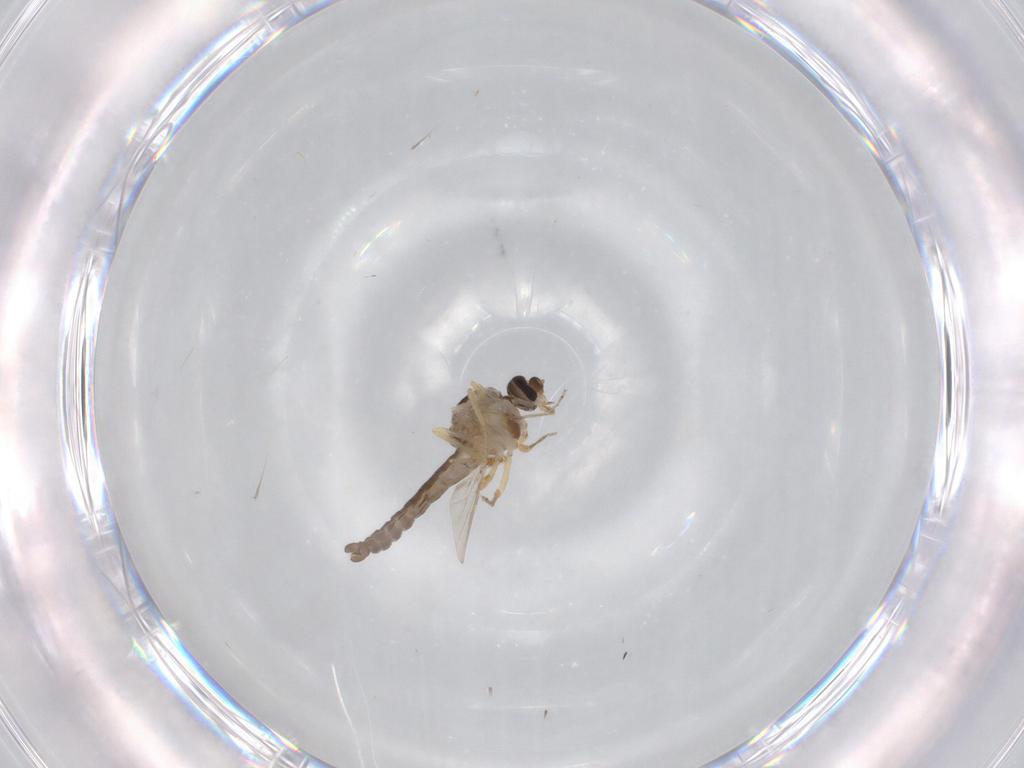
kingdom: Animalia
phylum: Arthropoda
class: Insecta
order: Diptera
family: Ceratopogonidae
